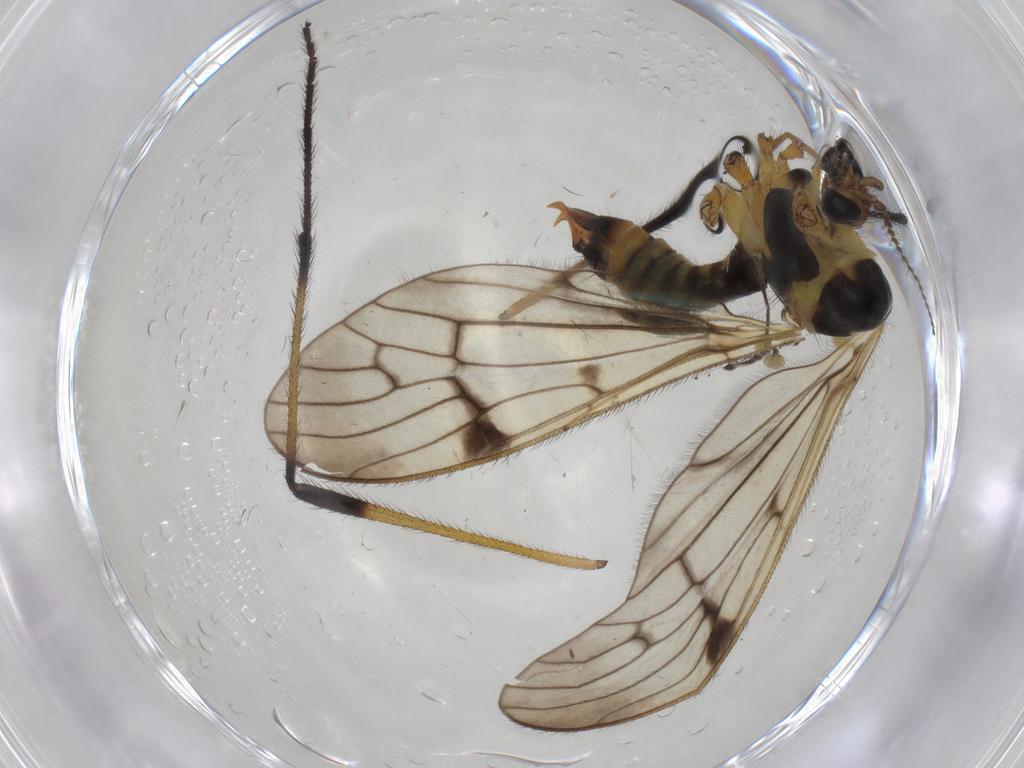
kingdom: Animalia
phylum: Arthropoda
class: Insecta
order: Diptera
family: Limoniidae
